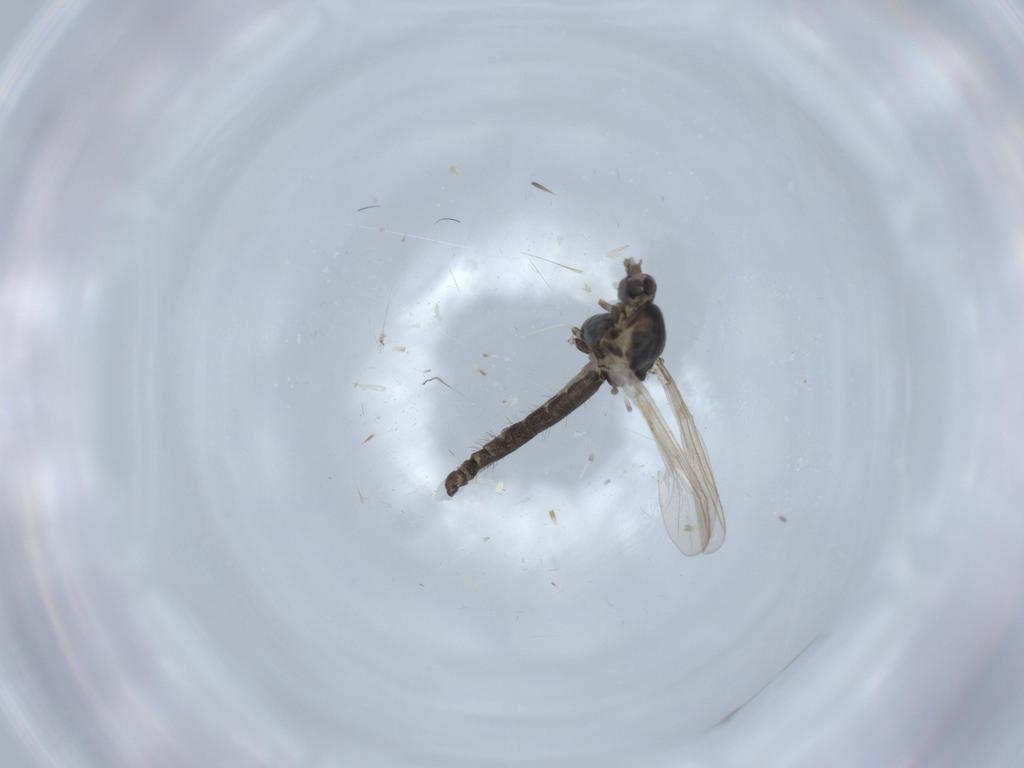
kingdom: Animalia
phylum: Arthropoda
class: Insecta
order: Diptera
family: Chironomidae
